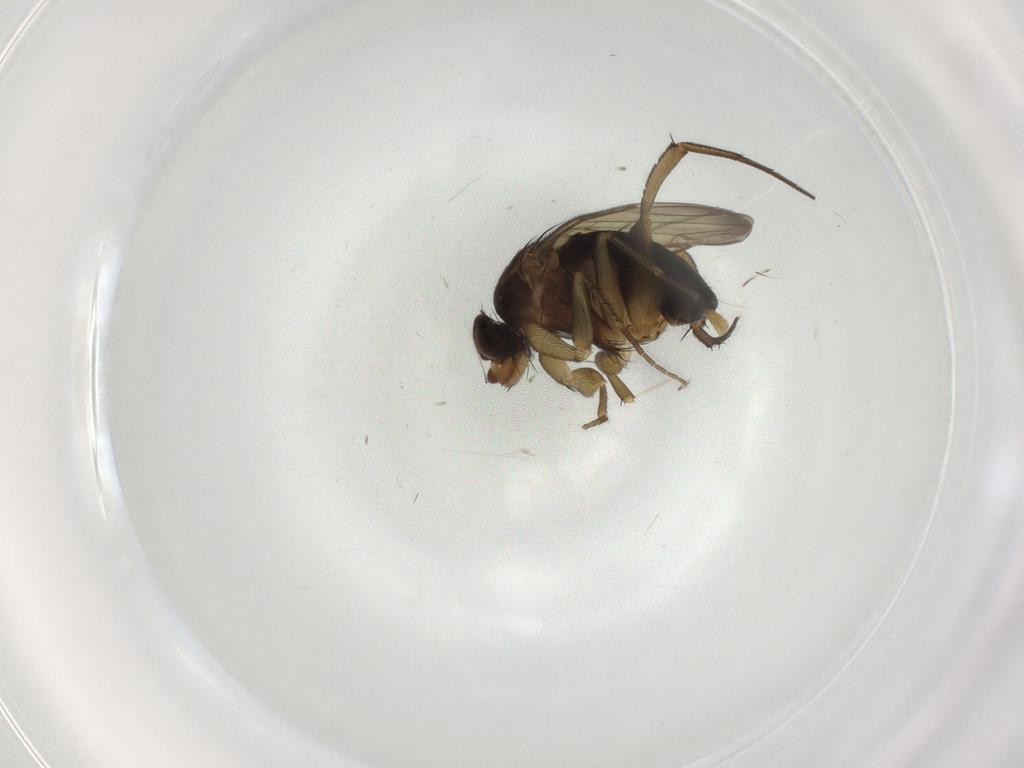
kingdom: Animalia
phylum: Arthropoda
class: Insecta
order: Diptera
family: Phoridae
